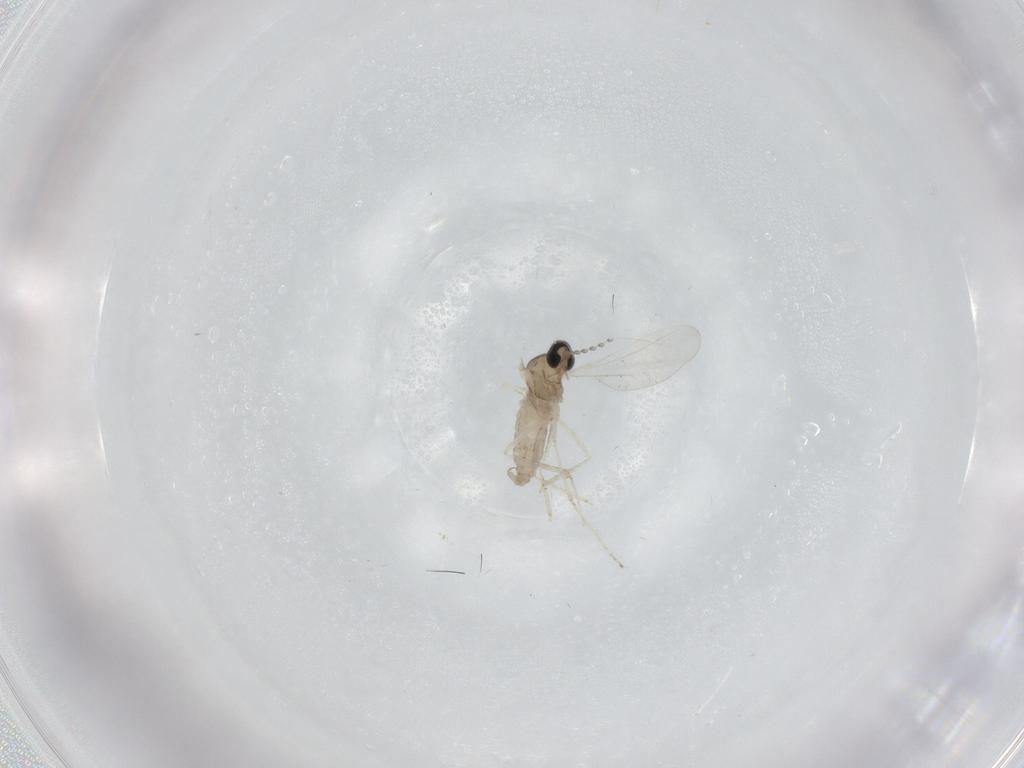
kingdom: Animalia
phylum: Arthropoda
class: Insecta
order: Diptera
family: Cecidomyiidae
